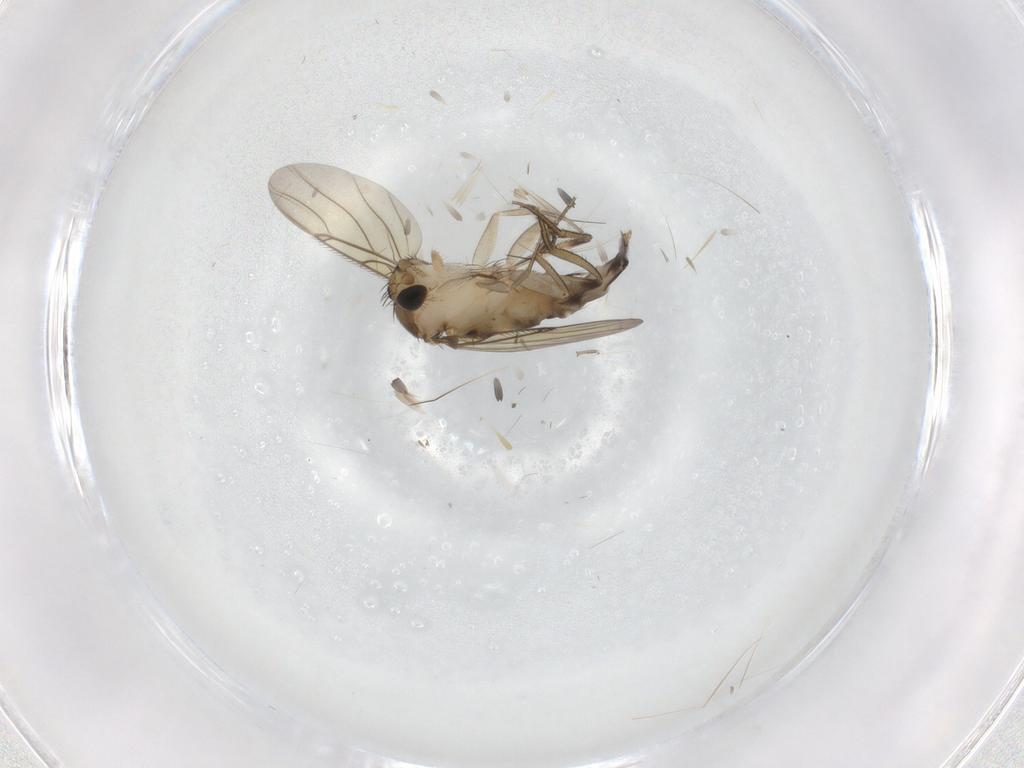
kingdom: Animalia
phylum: Arthropoda
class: Insecta
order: Diptera
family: Phoridae
